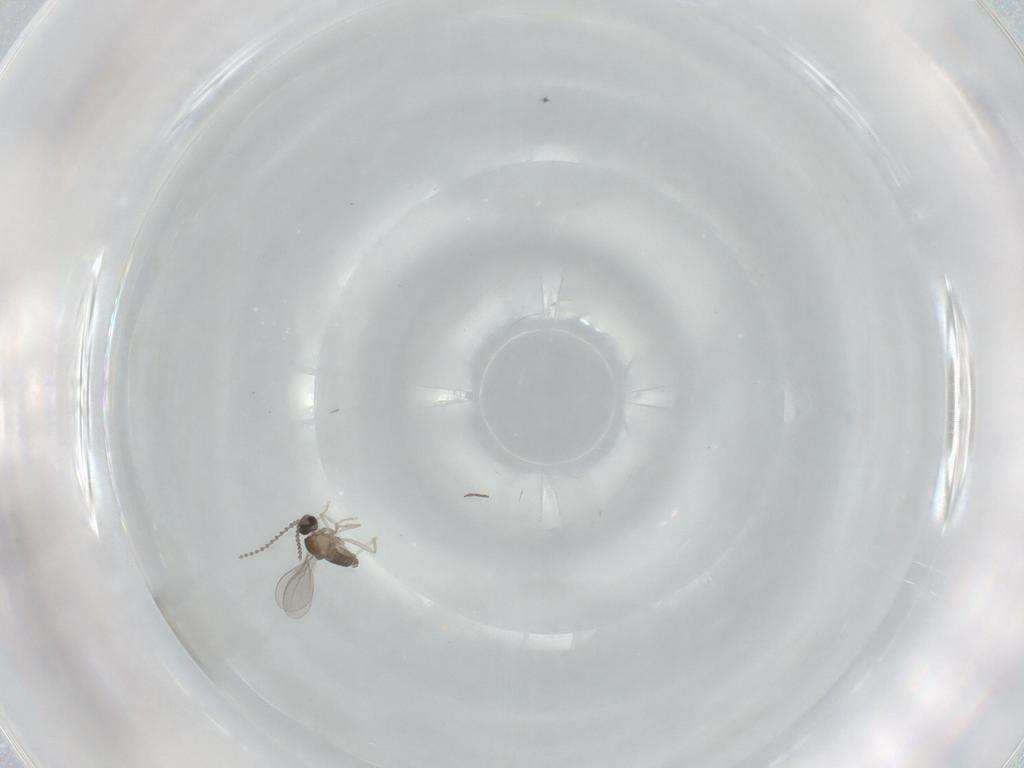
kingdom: Animalia
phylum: Arthropoda
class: Insecta
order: Diptera
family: Cecidomyiidae
